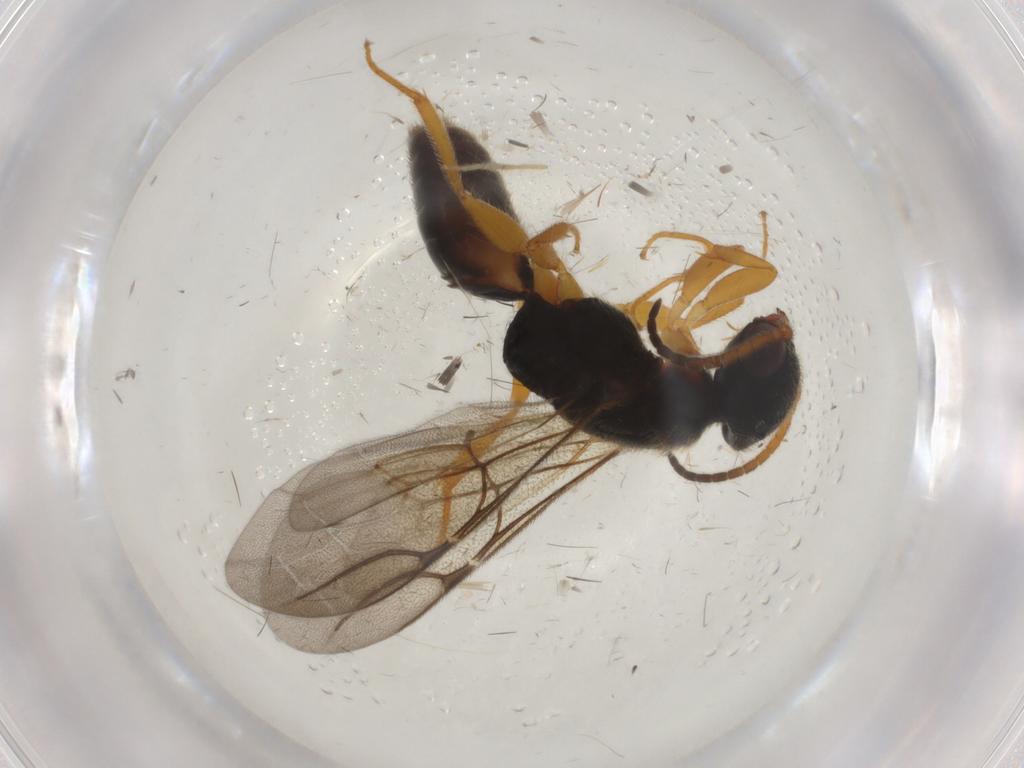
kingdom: Animalia
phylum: Arthropoda
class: Insecta
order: Hymenoptera
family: Bethylidae
